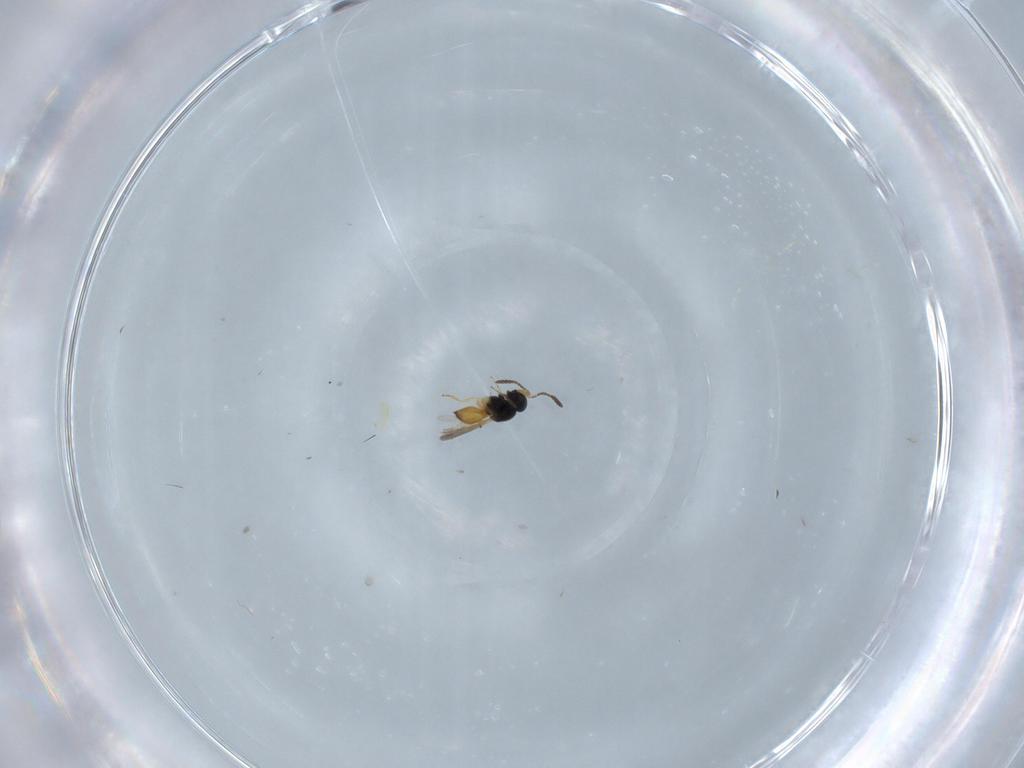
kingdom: Animalia
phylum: Arthropoda
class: Insecta
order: Hymenoptera
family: Scelionidae
